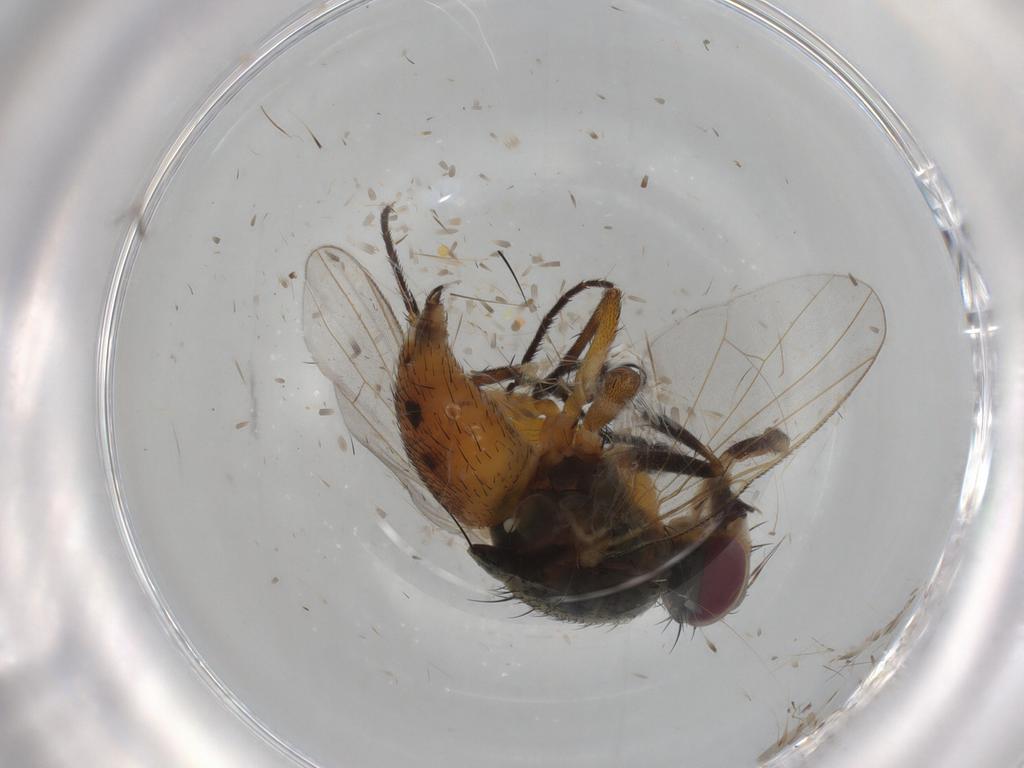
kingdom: Animalia
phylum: Arthropoda
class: Insecta
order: Diptera
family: Muscidae
